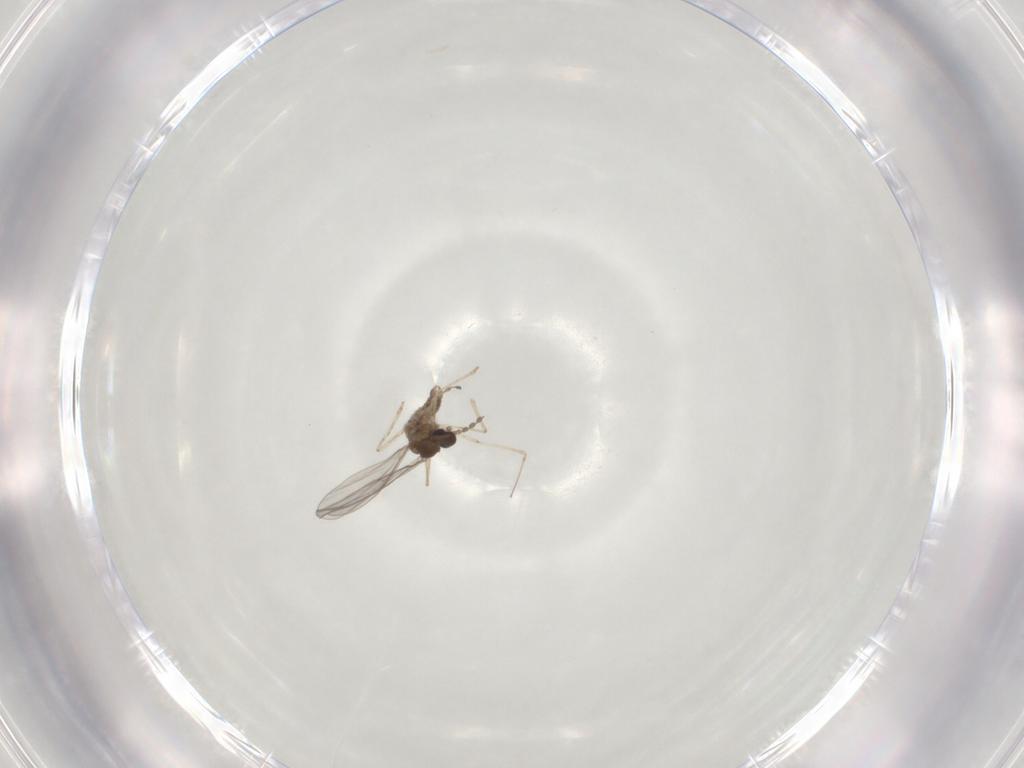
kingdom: Animalia
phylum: Arthropoda
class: Insecta
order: Diptera
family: Cecidomyiidae
